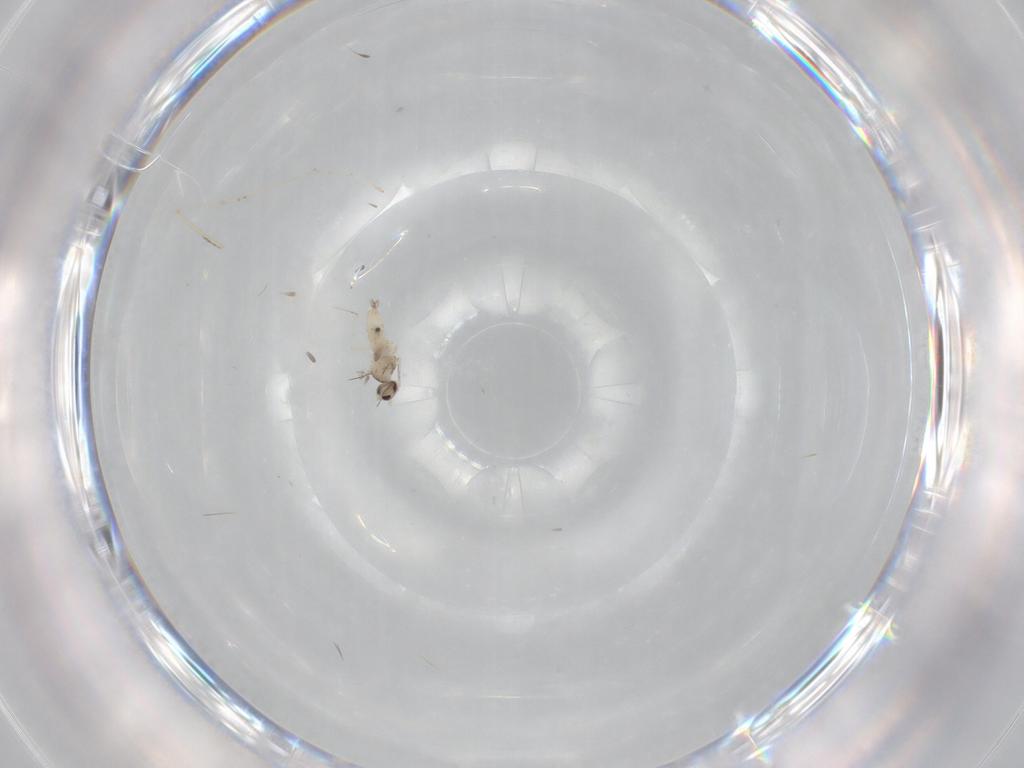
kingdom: Animalia
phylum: Arthropoda
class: Insecta
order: Diptera
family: Cecidomyiidae
